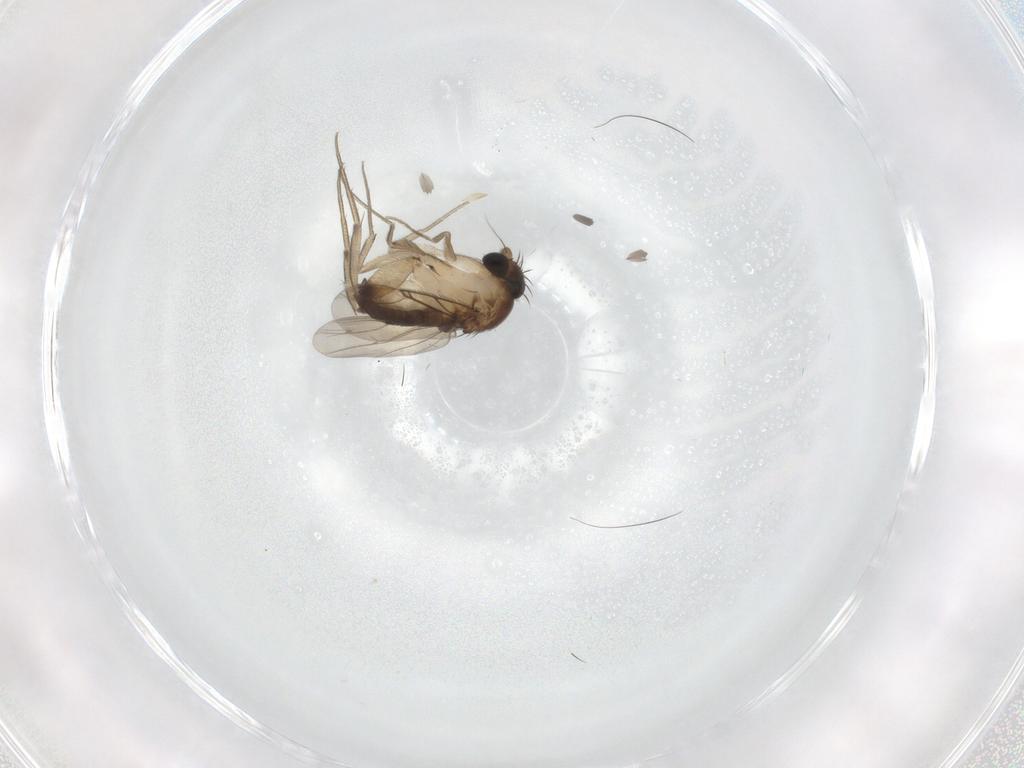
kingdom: Animalia
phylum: Arthropoda
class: Insecta
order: Diptera
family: Phoridae
